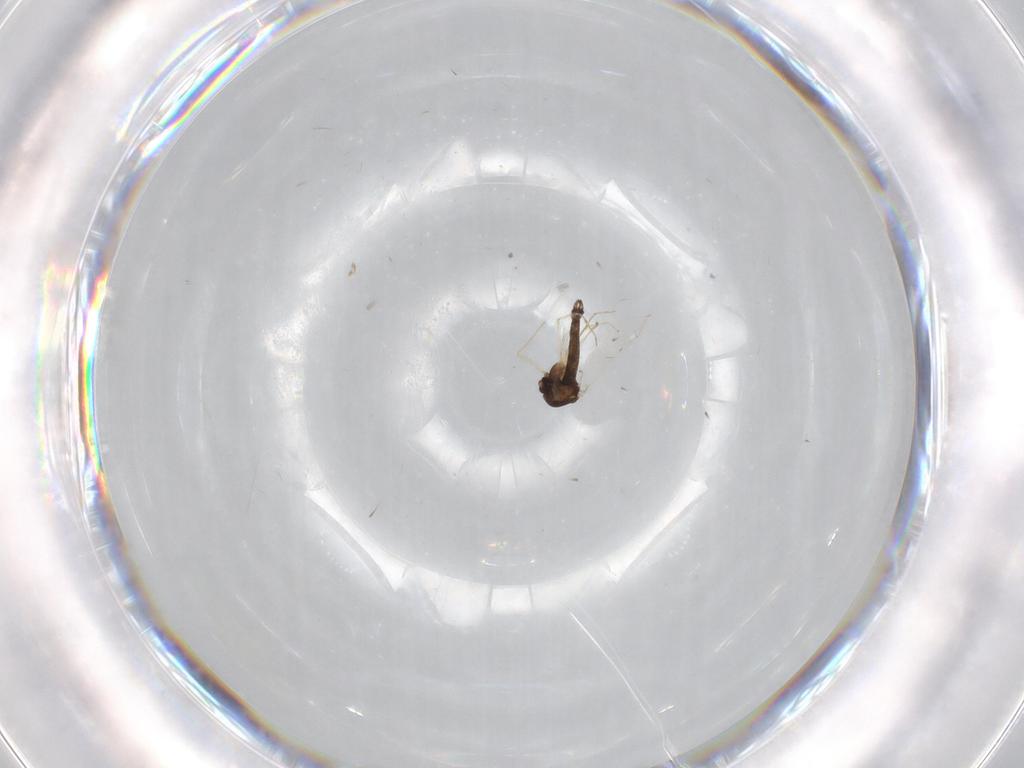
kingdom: Animalia
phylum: Arthropoda
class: Insecta
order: Diptera
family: Chironomidae
